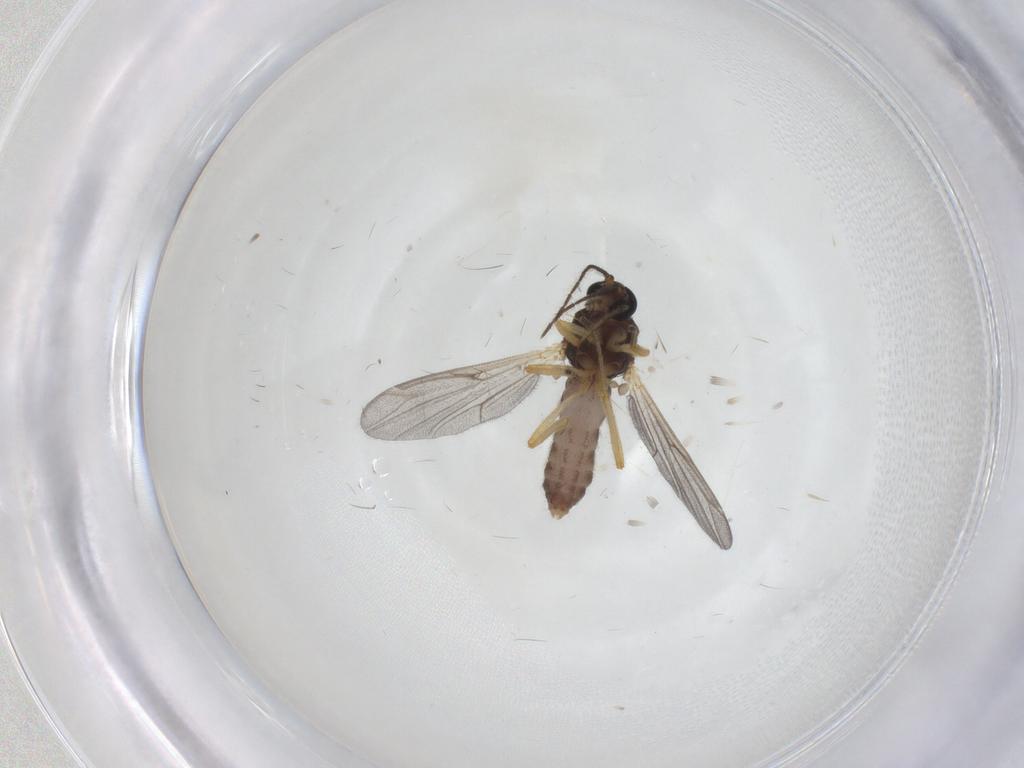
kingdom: Animalia
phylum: Arthropoda
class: Insecta
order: Diptera
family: Ceratopogonidae
